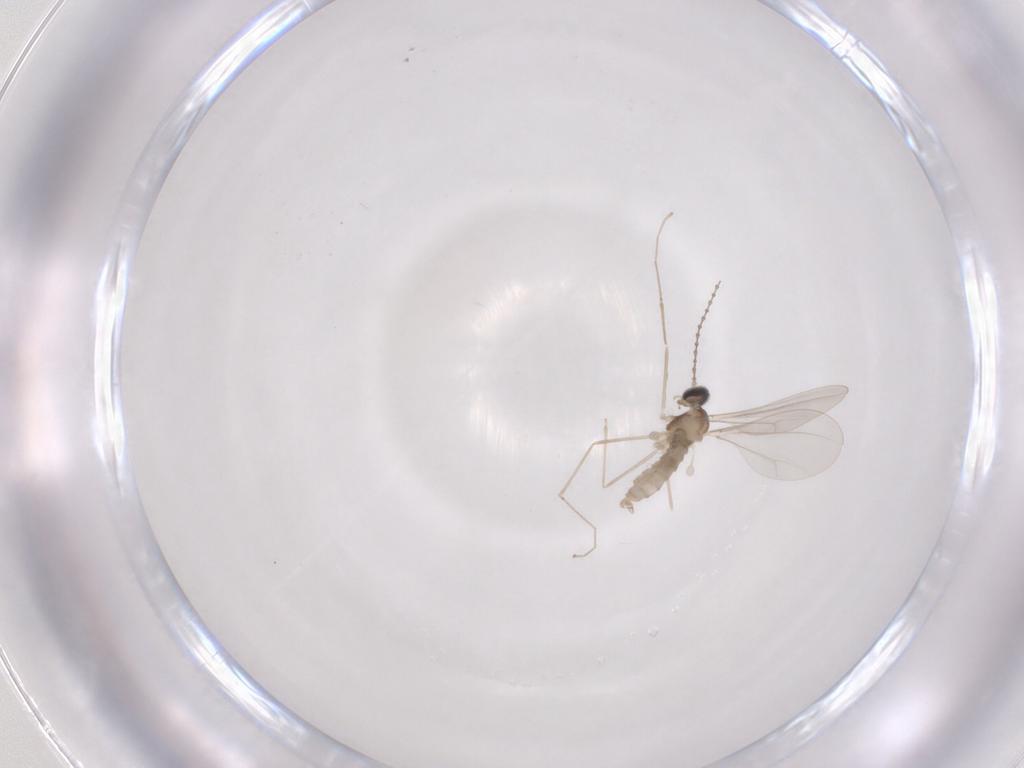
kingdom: Animalia
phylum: Arthropoda
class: Insecta
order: Diptera
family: Cecidomyiidae
